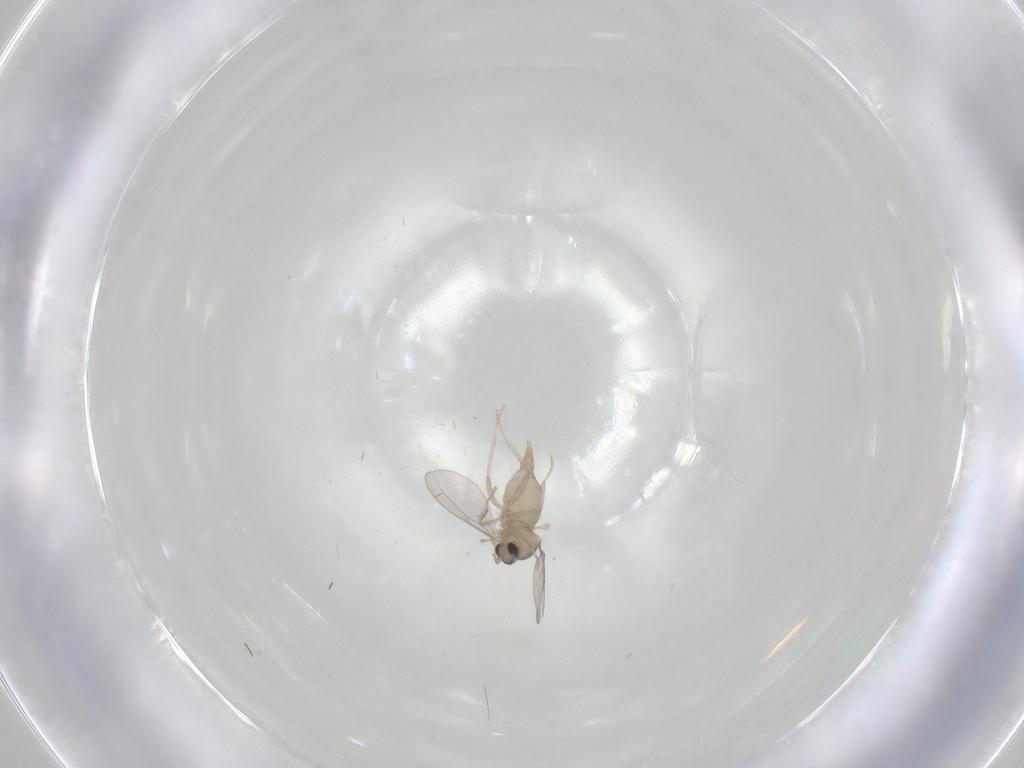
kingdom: Animalia
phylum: Arthropoda
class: Insecta
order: Diptera
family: Cecidomyiidae
